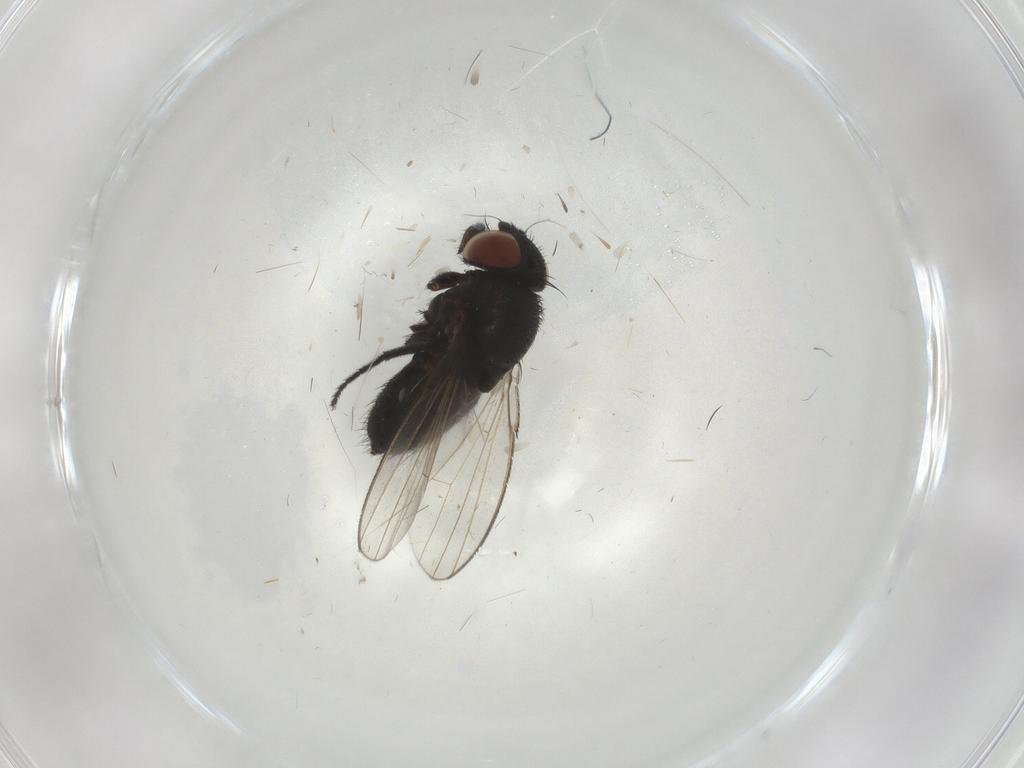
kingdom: Animalia
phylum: Arthropoda
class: Insecta
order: Diptera
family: Milichiidae
